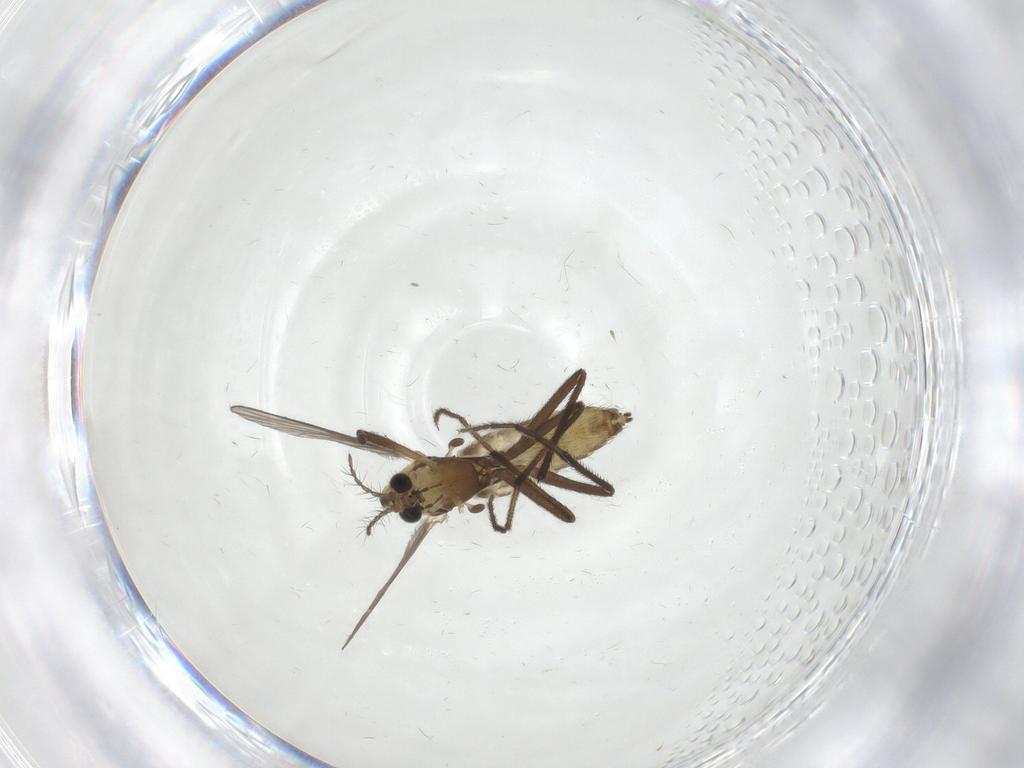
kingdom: Animalia
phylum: Arthropoda
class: Insecta
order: Diptera
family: Chironomidae
